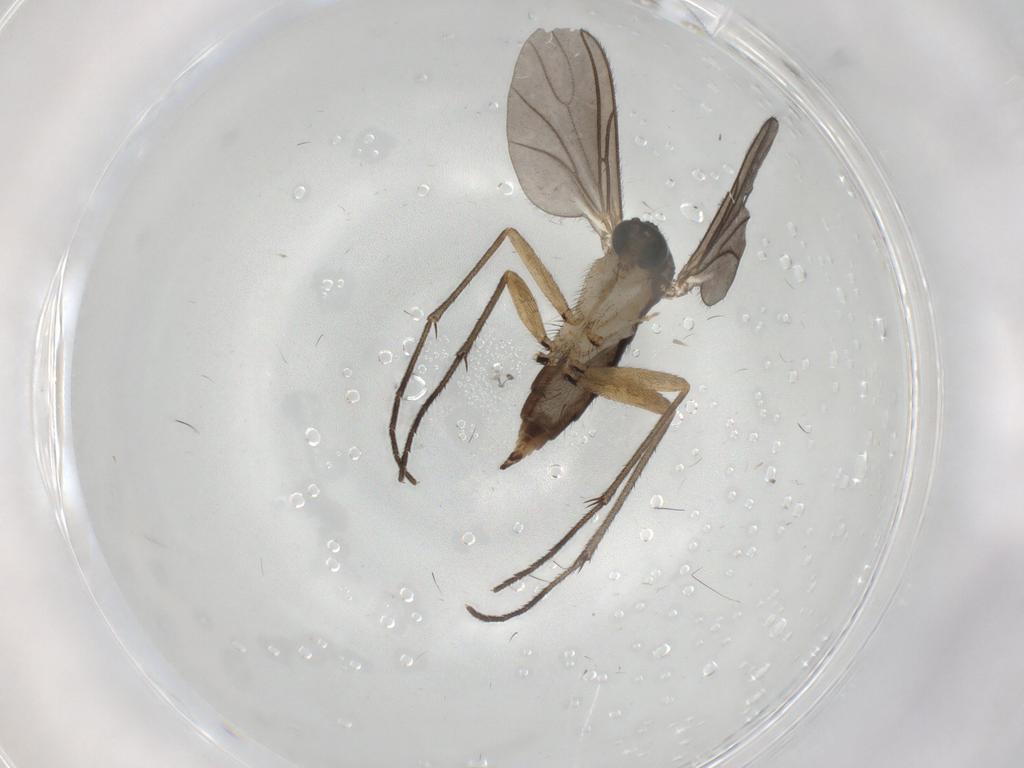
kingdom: Animalia
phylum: Arthropoda
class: Insecta
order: Diptera
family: Sciaridae
